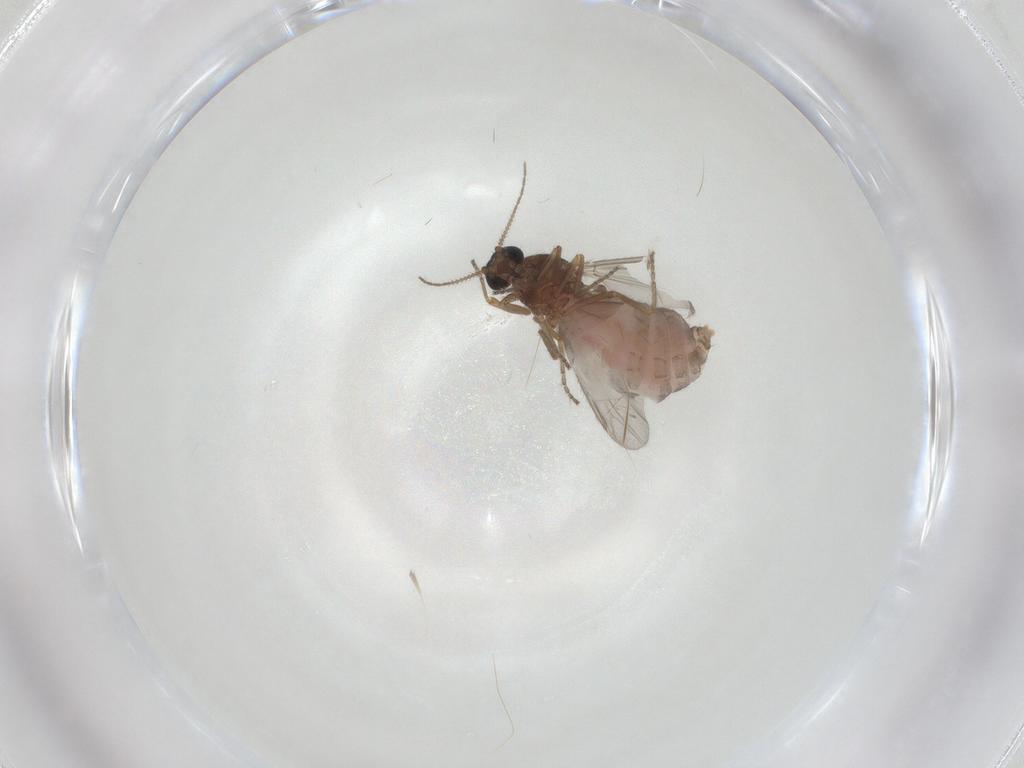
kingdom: Animalia
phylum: Arthropoda
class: Insecta
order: Diptera
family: Ceratopogonidae
